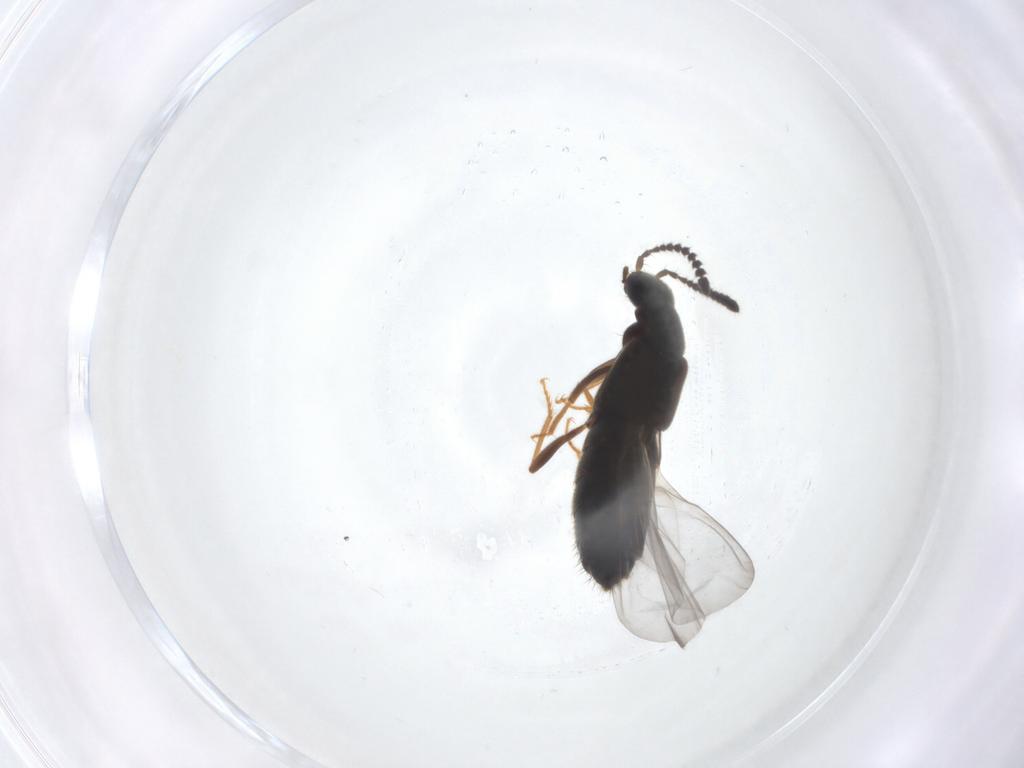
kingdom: Animalia
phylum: Arthropoda
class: Insecta
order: Coleoptera
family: Staphylinidae
